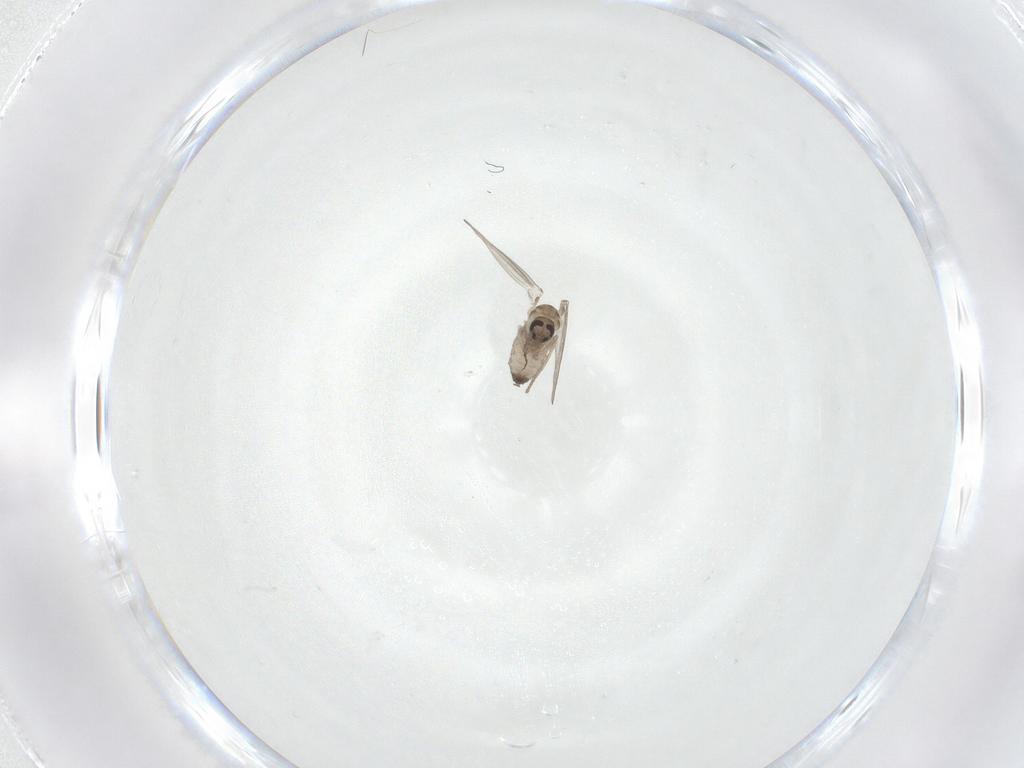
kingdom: Animalia
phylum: Arthropoda
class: Insecta
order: Diptera
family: Psychodidae
